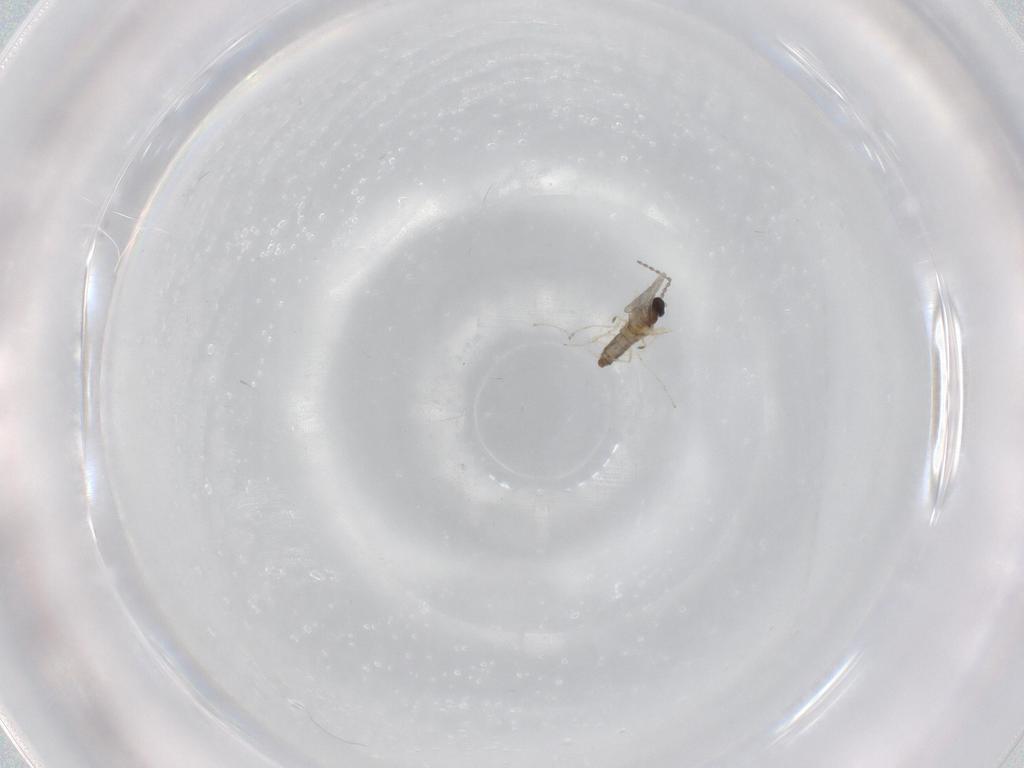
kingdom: Animalia
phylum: Arthropoda
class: Insecta
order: Diptera
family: Cecidomyiidae
